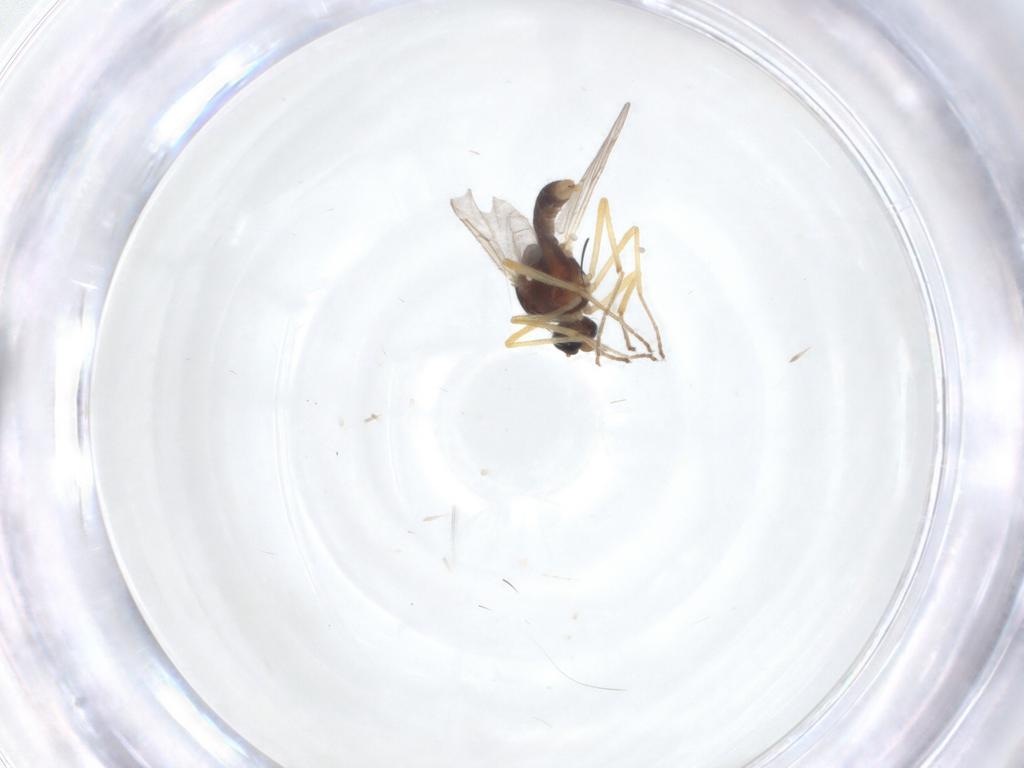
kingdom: Animalia
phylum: Arthropoda
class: Insecta
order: Diptera
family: Ceratopogonidae
